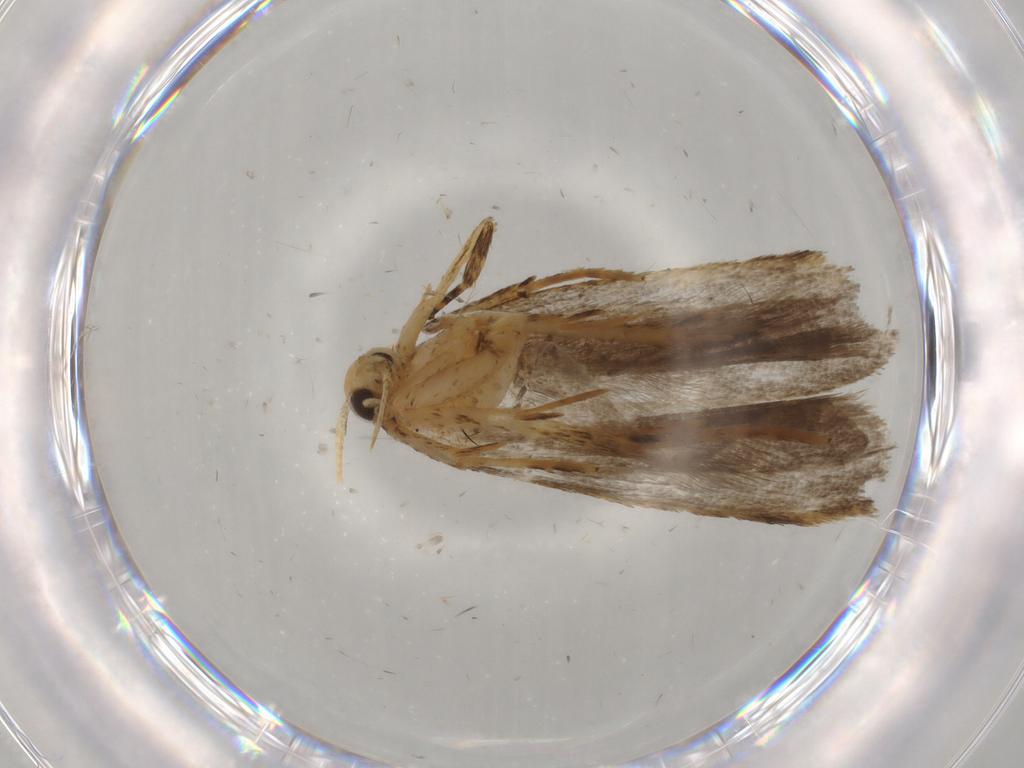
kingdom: Animalia
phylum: Arthropoda
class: Insecta
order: Lepidoptera
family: Autostichidae
